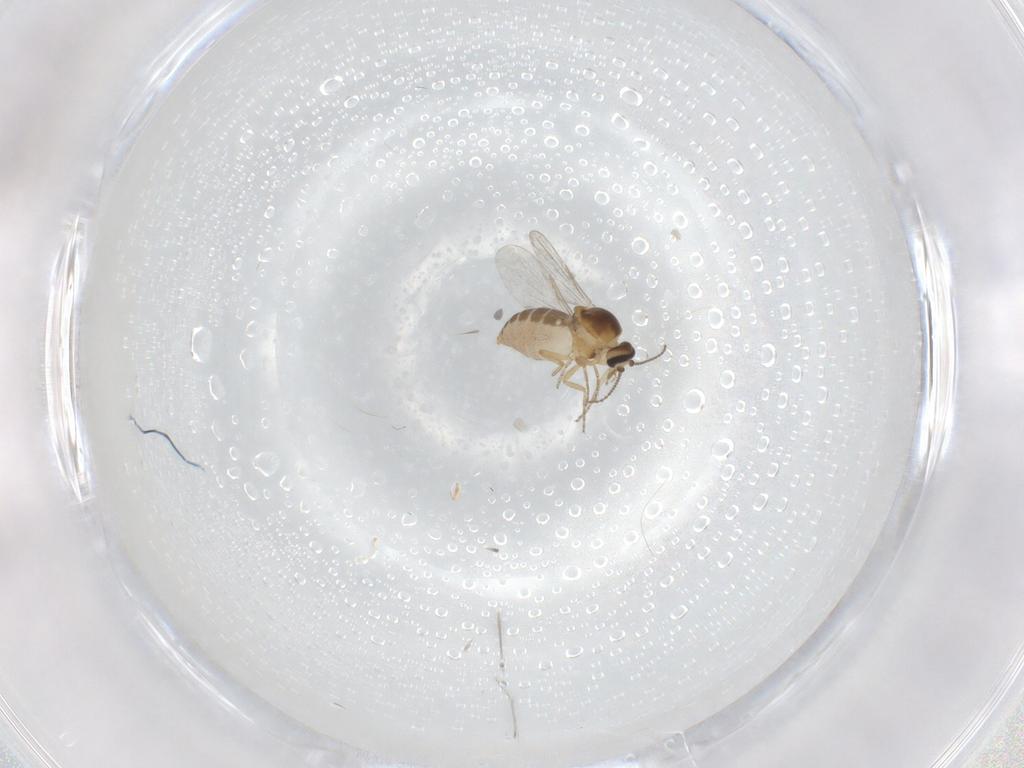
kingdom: Animalia
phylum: Arthropoda
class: Insecta
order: Diptera
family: Ceratopogonidae
